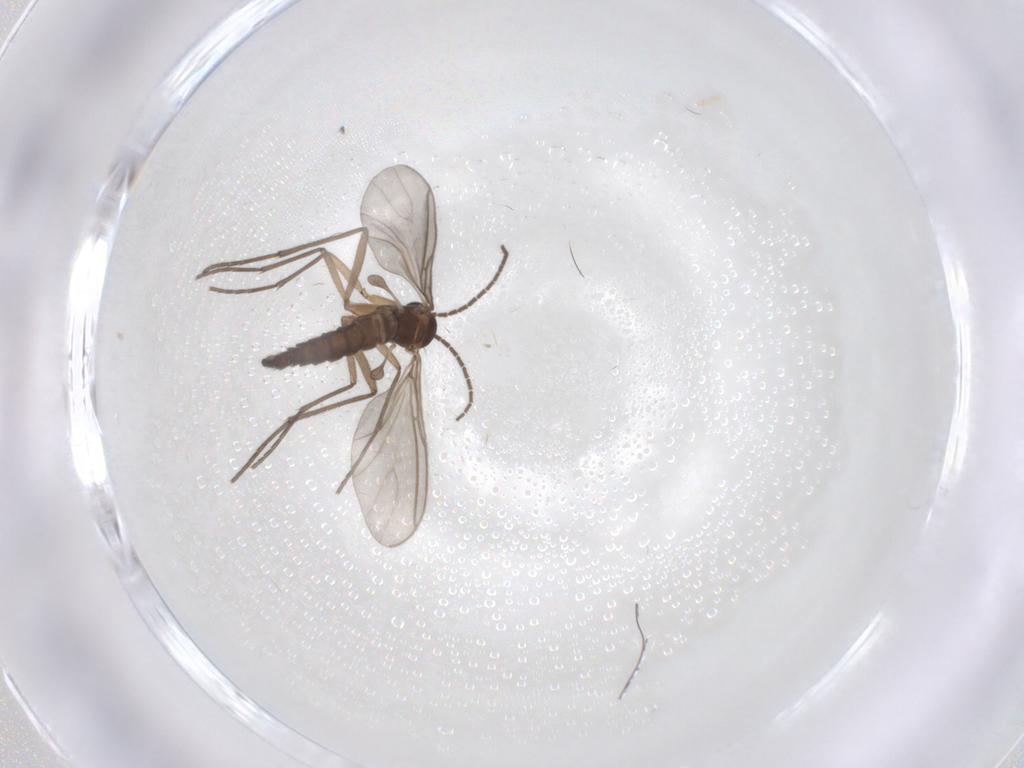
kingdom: Animalia
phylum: Arthropoda
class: Insecta
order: Diptera
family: Sciaridae
